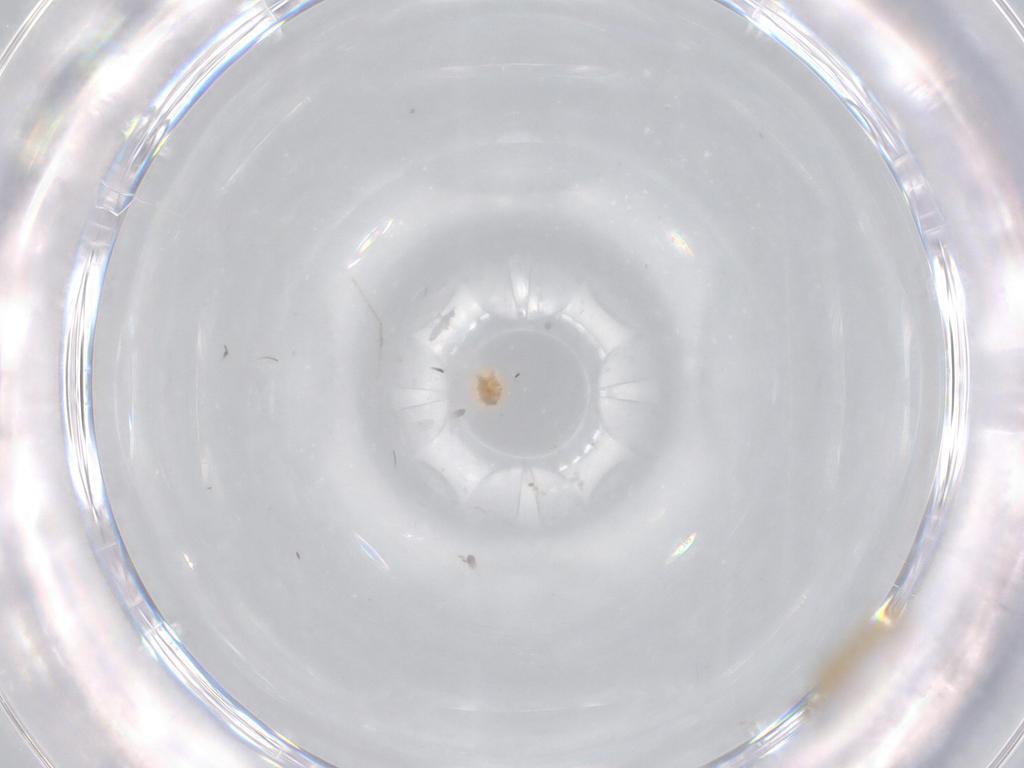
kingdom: Animalia
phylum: Arthropoda
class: Insecta
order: Diptera
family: Cecidomyiidae
